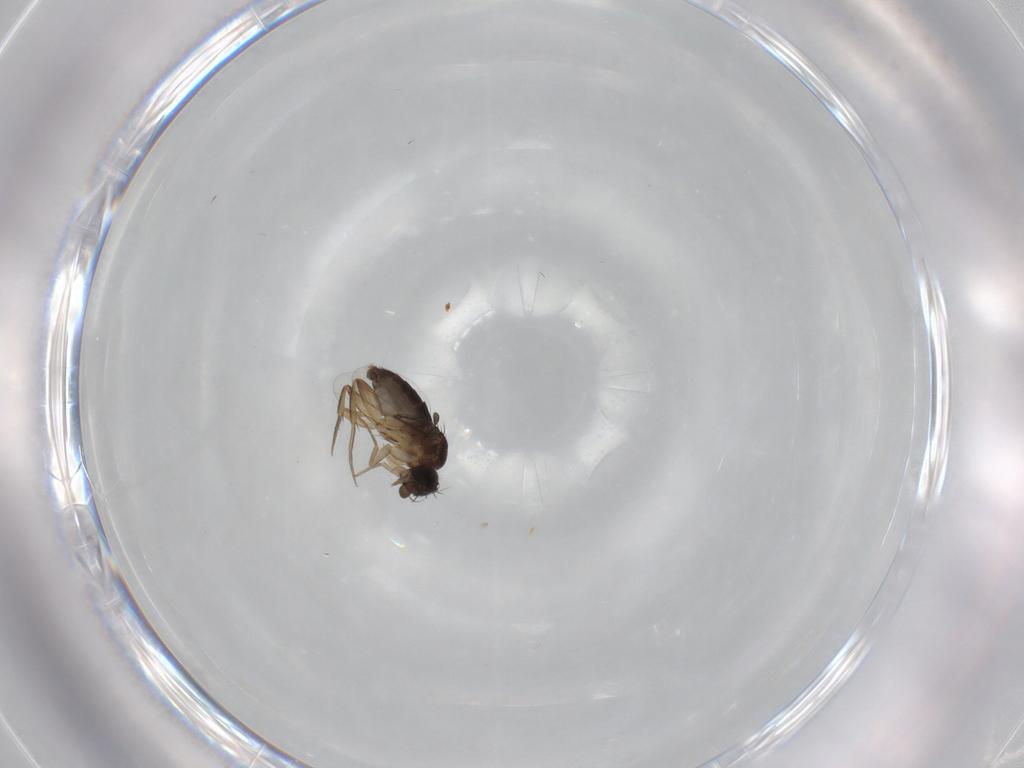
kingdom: Animalia
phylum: Arthropoda
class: Insecta
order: Diptera
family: Phoridae
